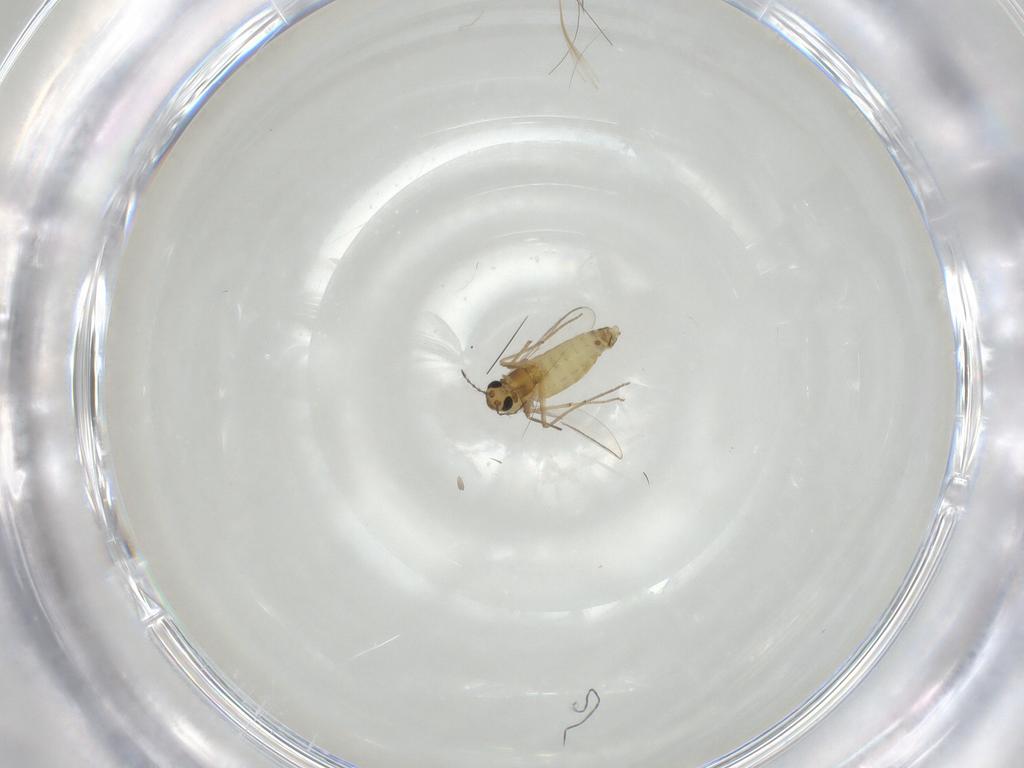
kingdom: Animalia
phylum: Arthropoda
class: Insecta
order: Diptera
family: Chironomidae
